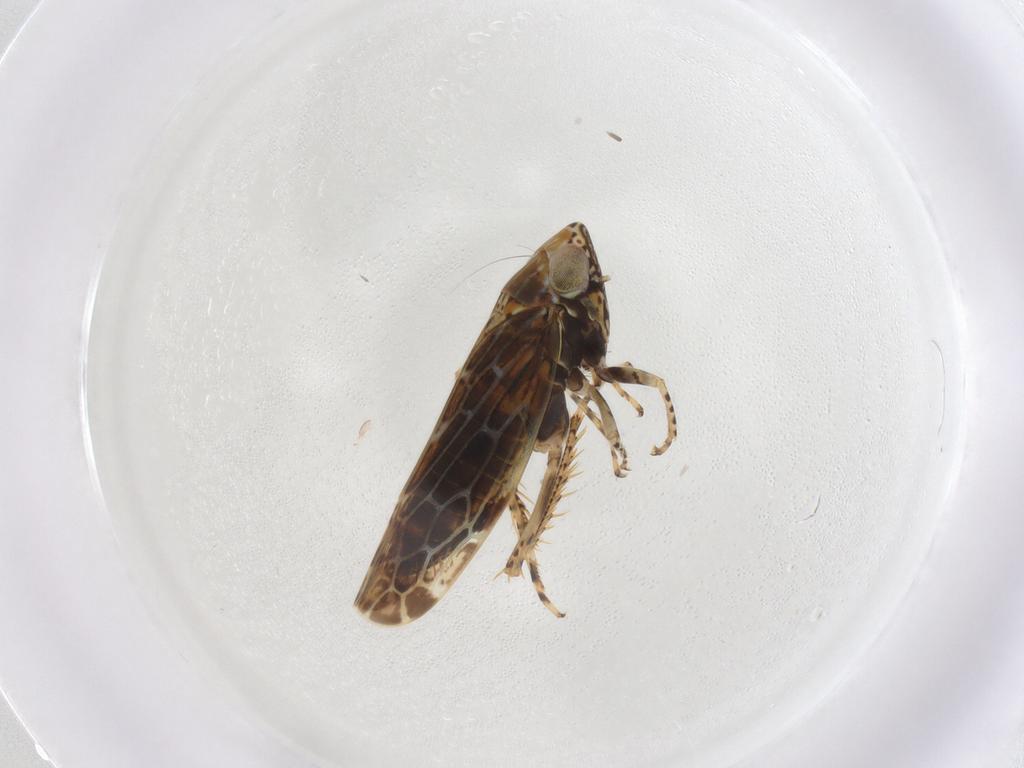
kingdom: Animalia
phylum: Arthropoda
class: Insecta
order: Hemiptera
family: Cicadellidae
